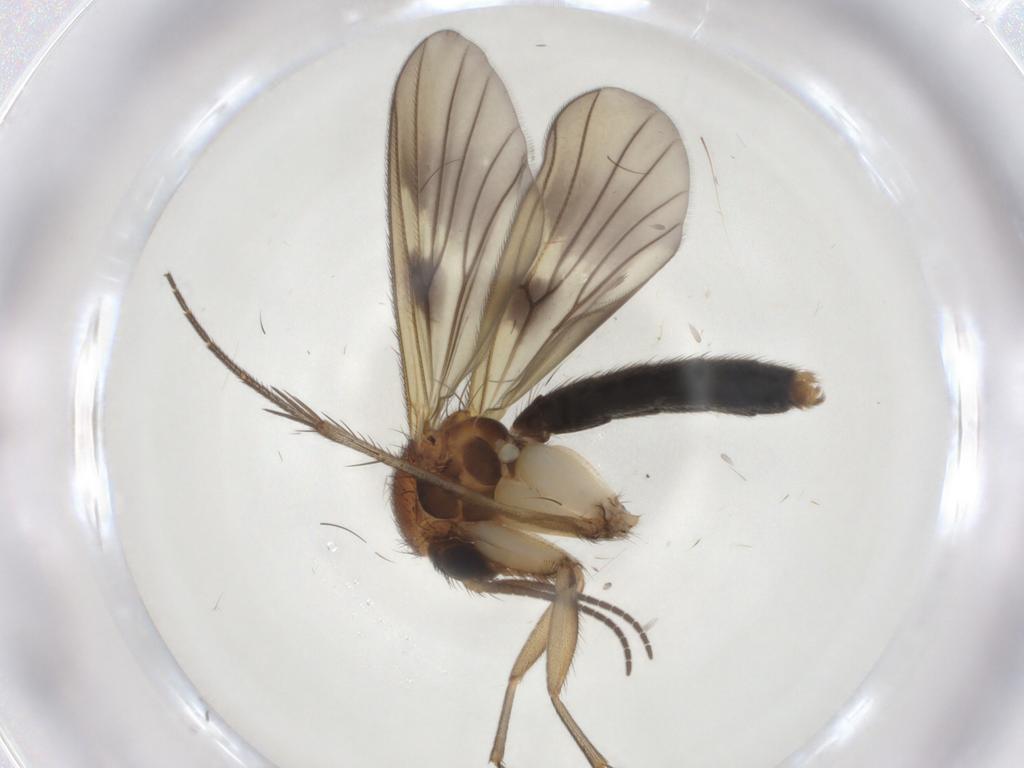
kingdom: Animalia
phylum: Arthropoda
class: Insecta
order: Diptera
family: Mycetophilidae
